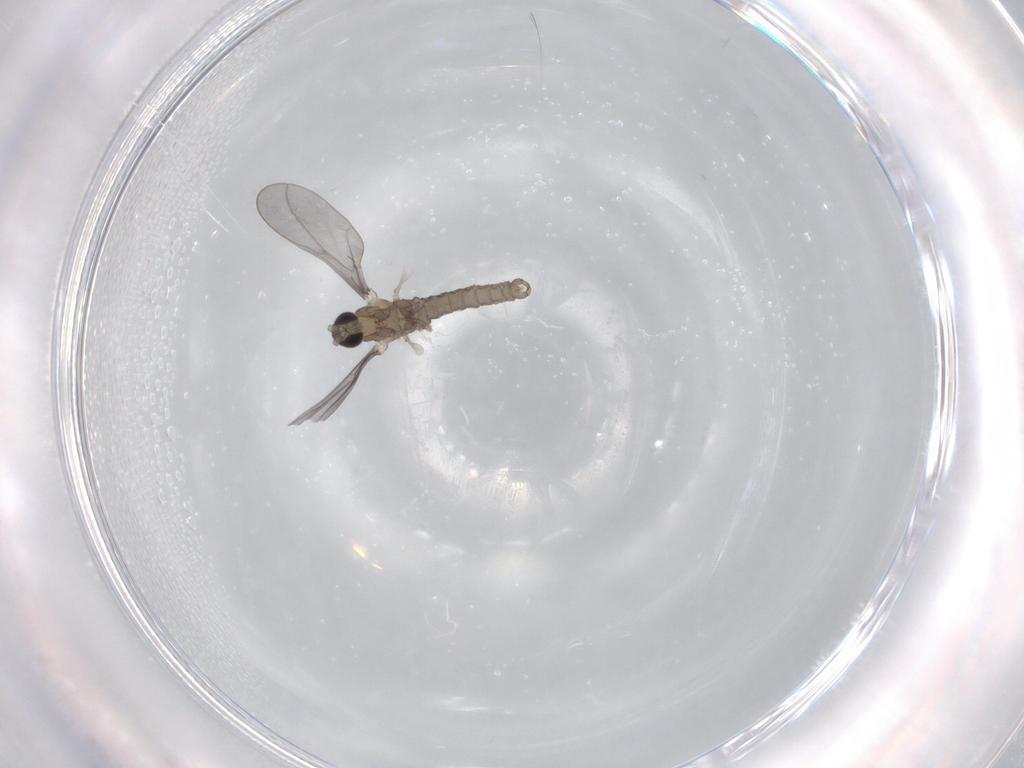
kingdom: Animalia
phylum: Arthropoda
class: Insecta
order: Diptera
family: Cecidomyiidae
